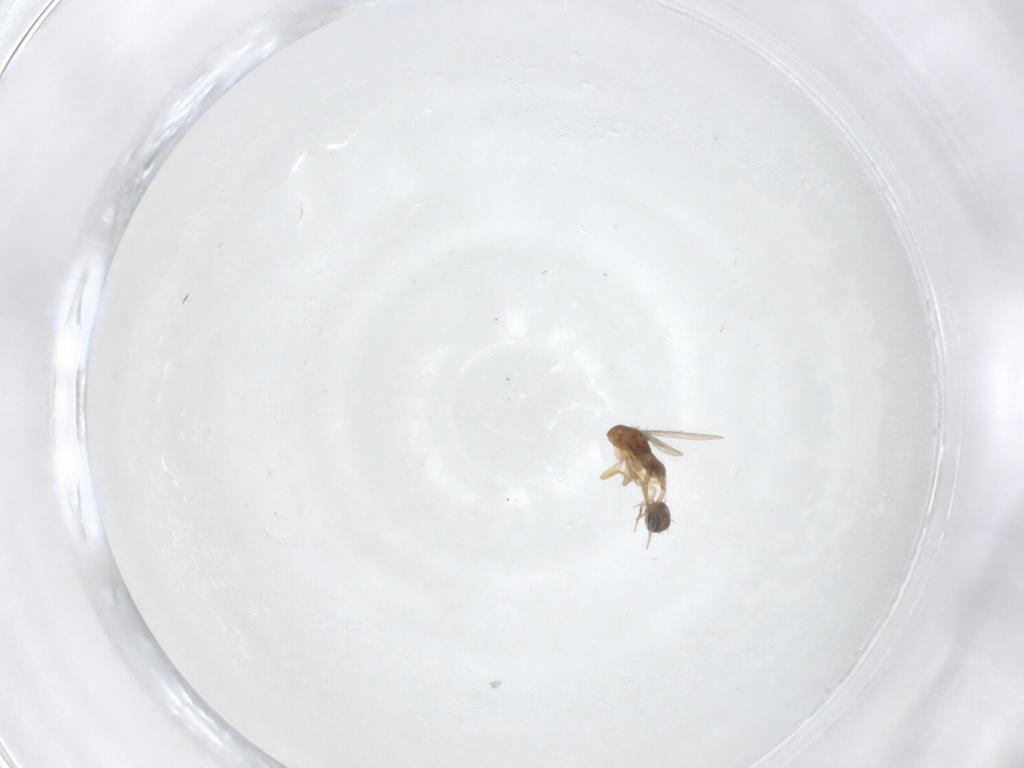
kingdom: Animalia
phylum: Arthropoda
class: Insecta
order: Diptera
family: Phoridae
